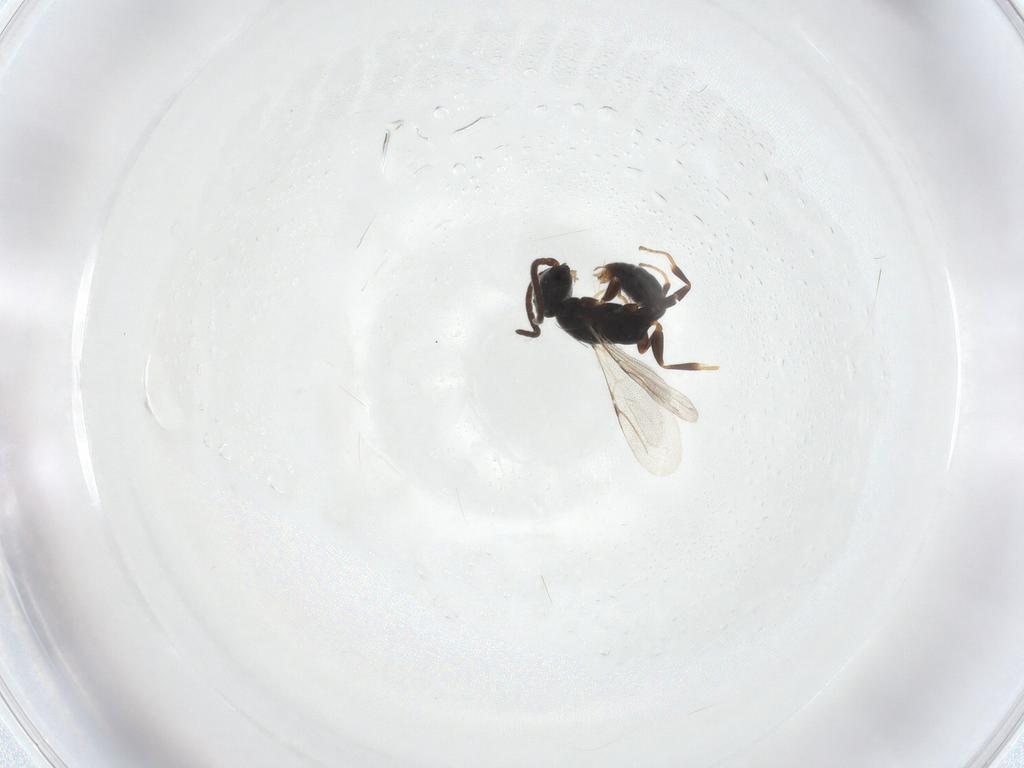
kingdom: Animalia
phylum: Arthropoda
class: Insecta
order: Hymenoptera
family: Bethylidae
